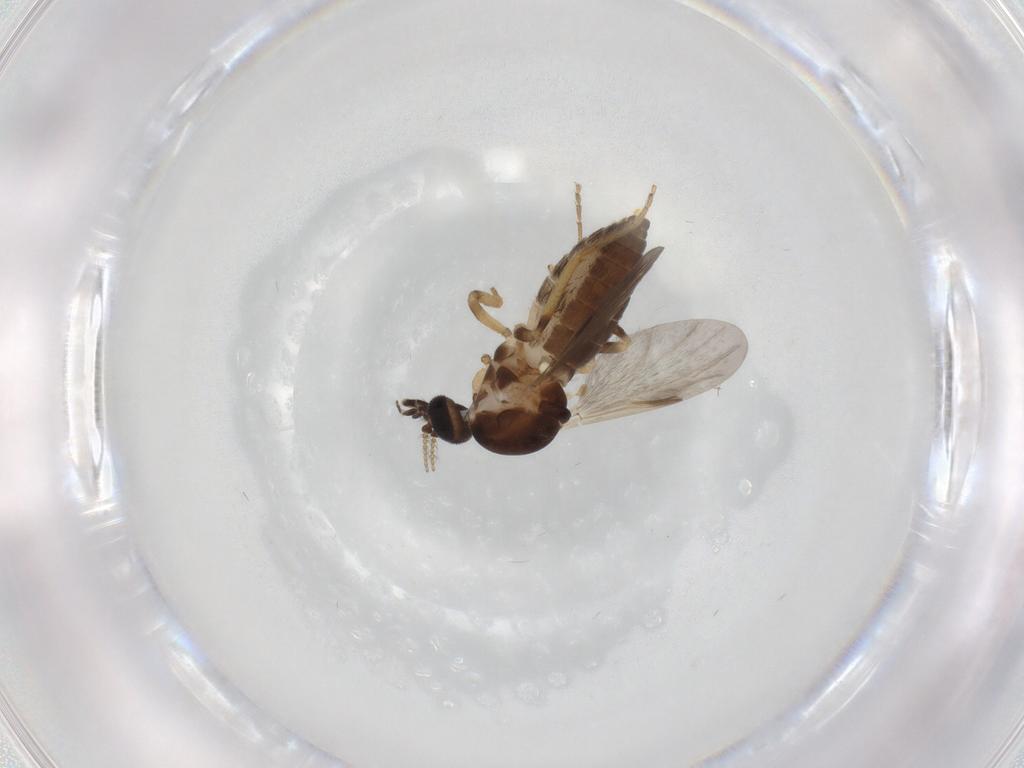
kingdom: Animalia
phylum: Arthropoda
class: Insecta
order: Diptera
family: Ceratopogonidae
